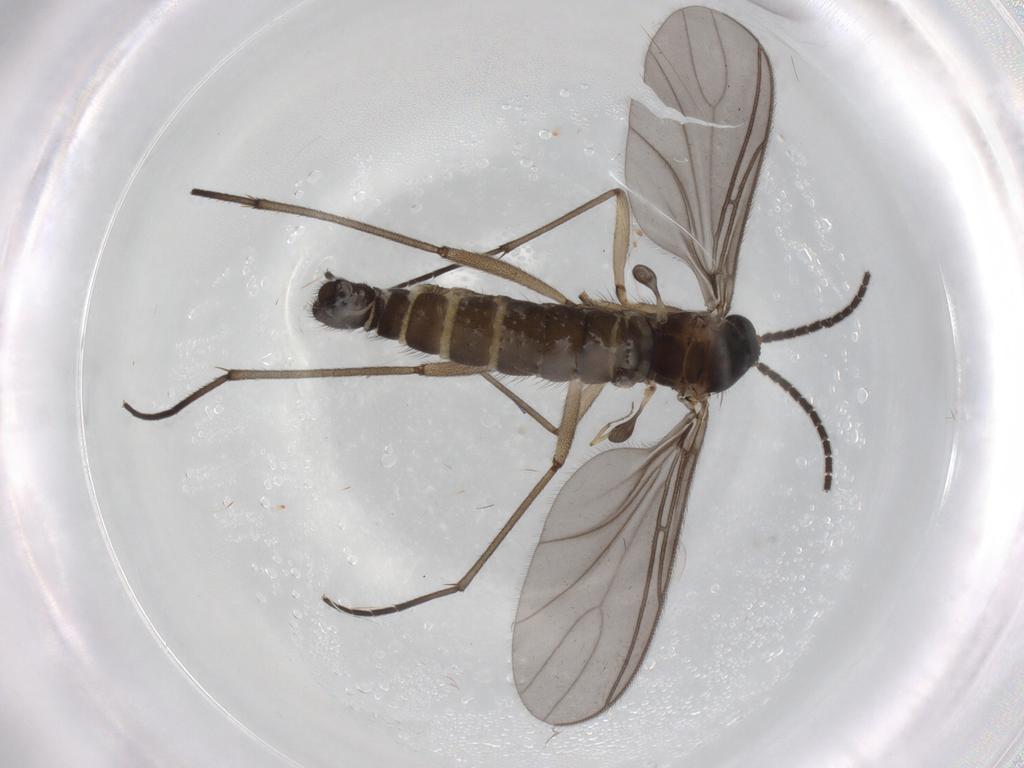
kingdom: Animalia
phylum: Arthropoda
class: Insecta
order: Diptera
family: Sciaridae
